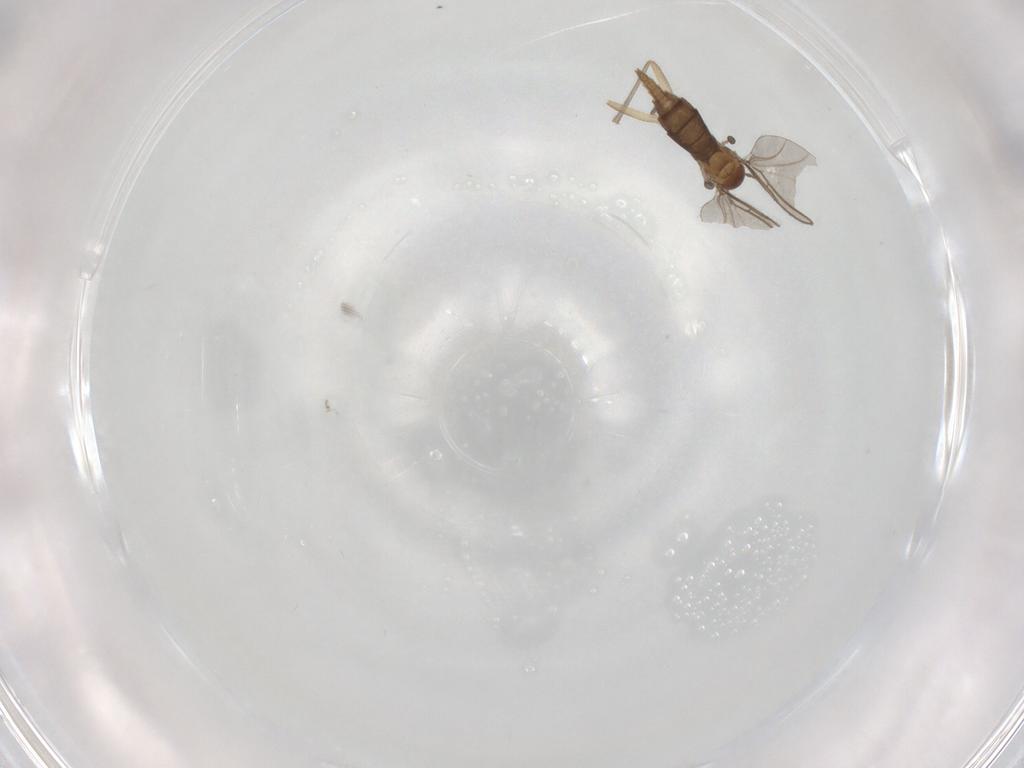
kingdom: Animalia
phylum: Arthropoda
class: Insecta
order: Diptera
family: Sciaridae
